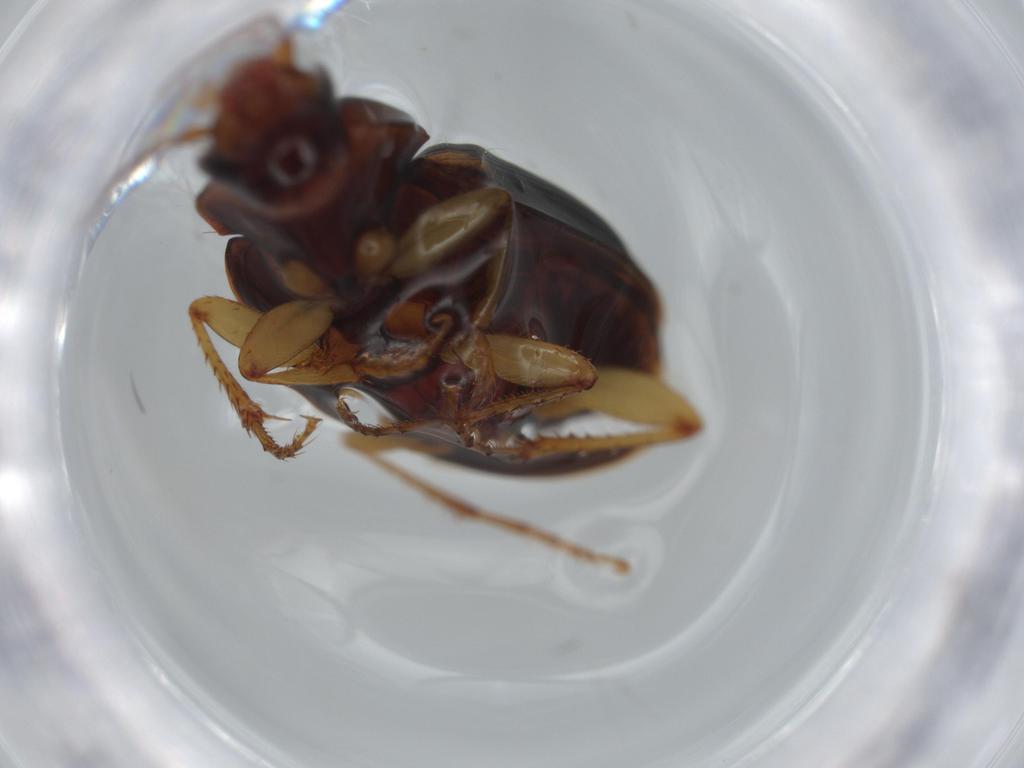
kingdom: Animalia
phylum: Arthropoda
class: Insecta
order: Coleoptera
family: Carabidae
